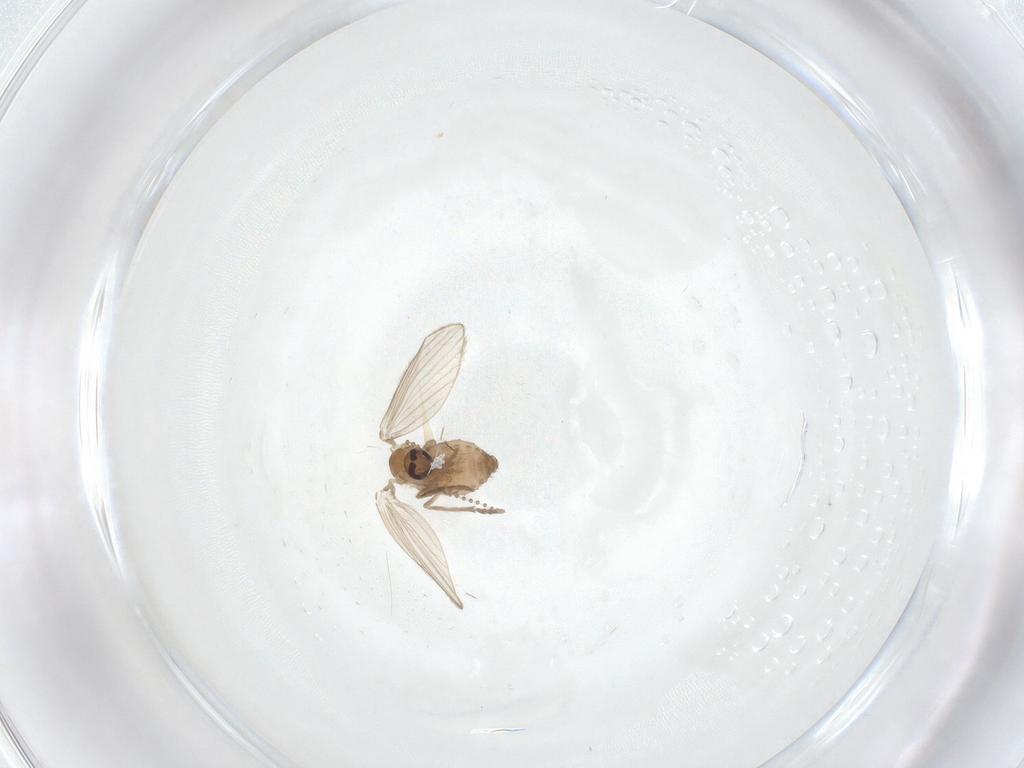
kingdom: Animalia
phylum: Arthropoda
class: Insecta
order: Diptera
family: Psychodidae
